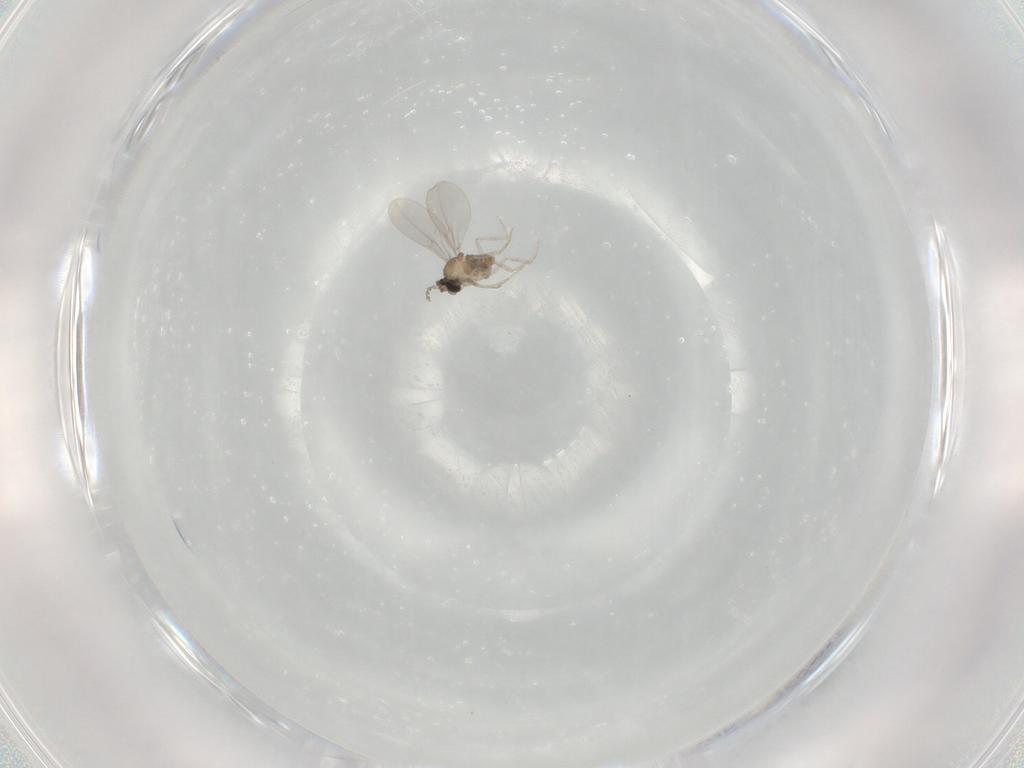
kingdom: Animalia
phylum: Arthropoda
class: Insecta
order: Diptera
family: Cecidomyiidae
